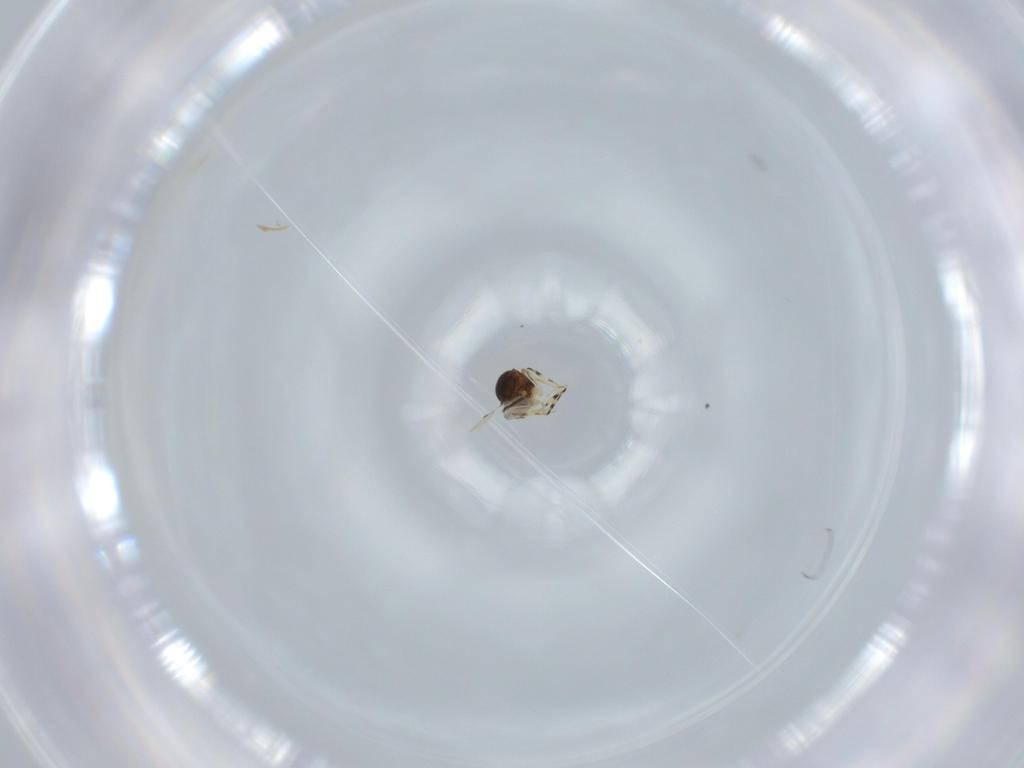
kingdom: Animalia
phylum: Arthropoda
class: Insecta
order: Hymenoptera
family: Scelionidae
